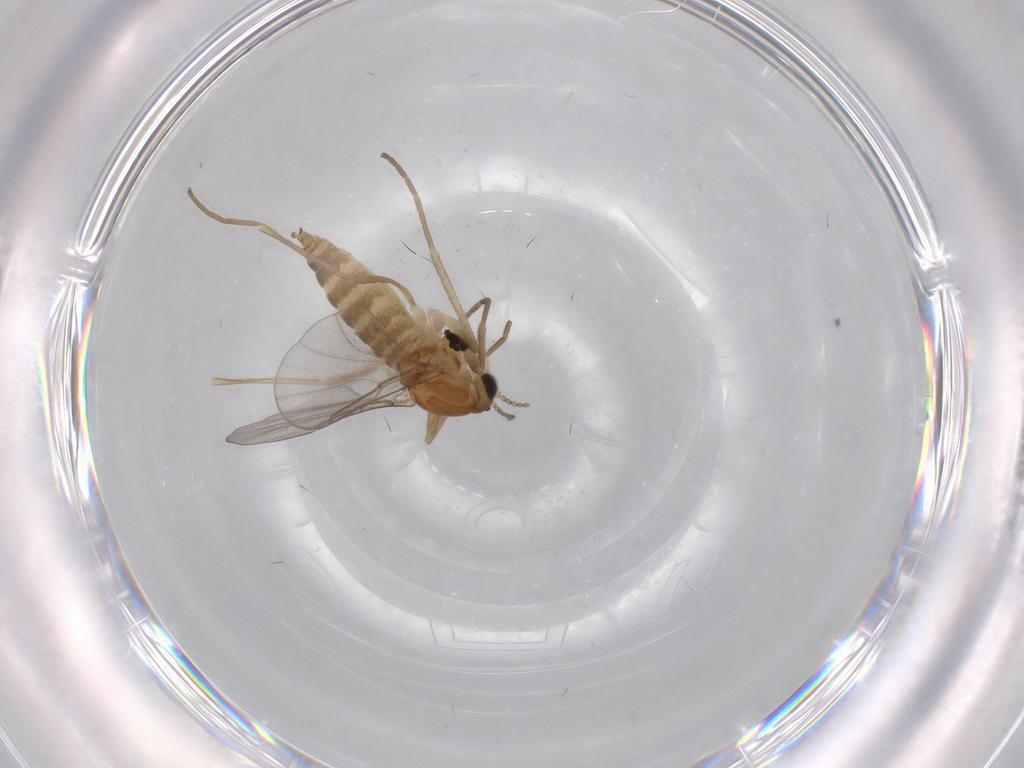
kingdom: Animalia
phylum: Arthropoda
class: Insecta
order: Diptera
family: Cecidomyiidae
